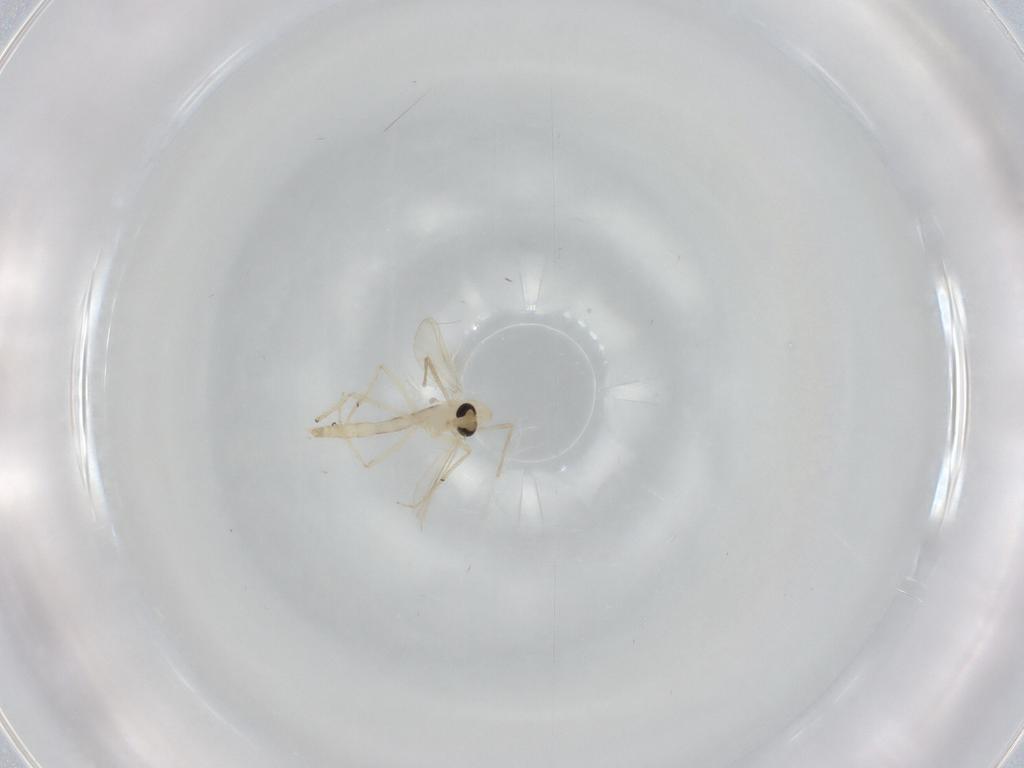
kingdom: Animalia
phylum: Arthropoda
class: Insecta
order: Diptera
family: Chironomidae
